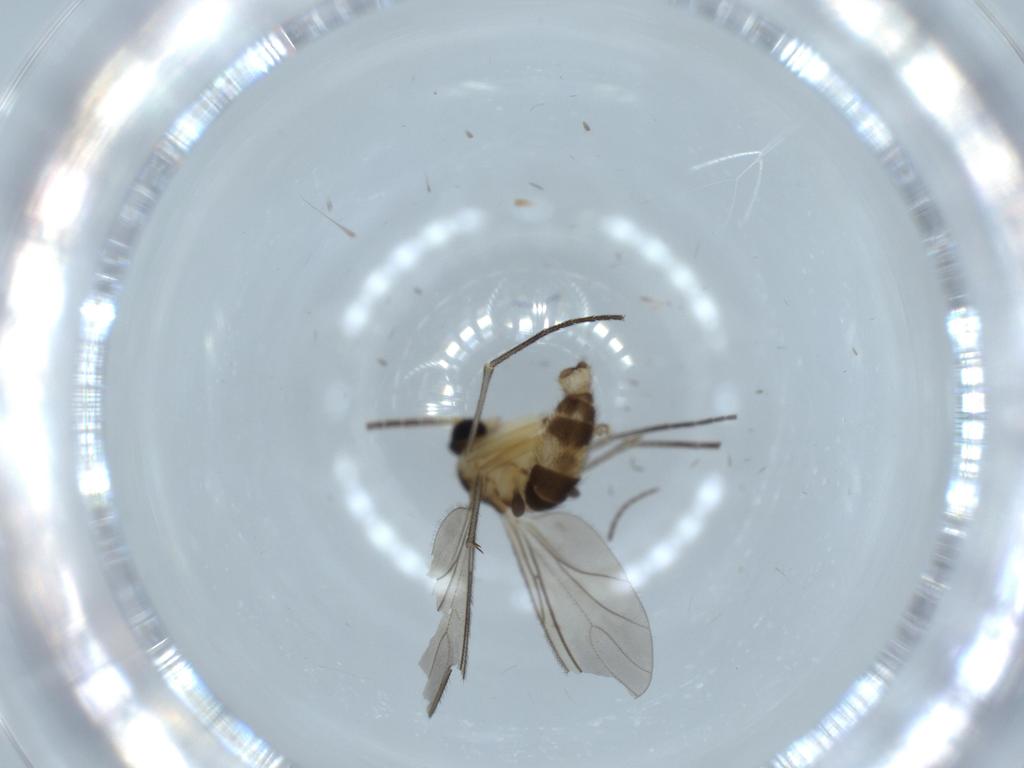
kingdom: Animalia
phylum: Arthropoda
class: Insecta
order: Diptera
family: Sciaridae
